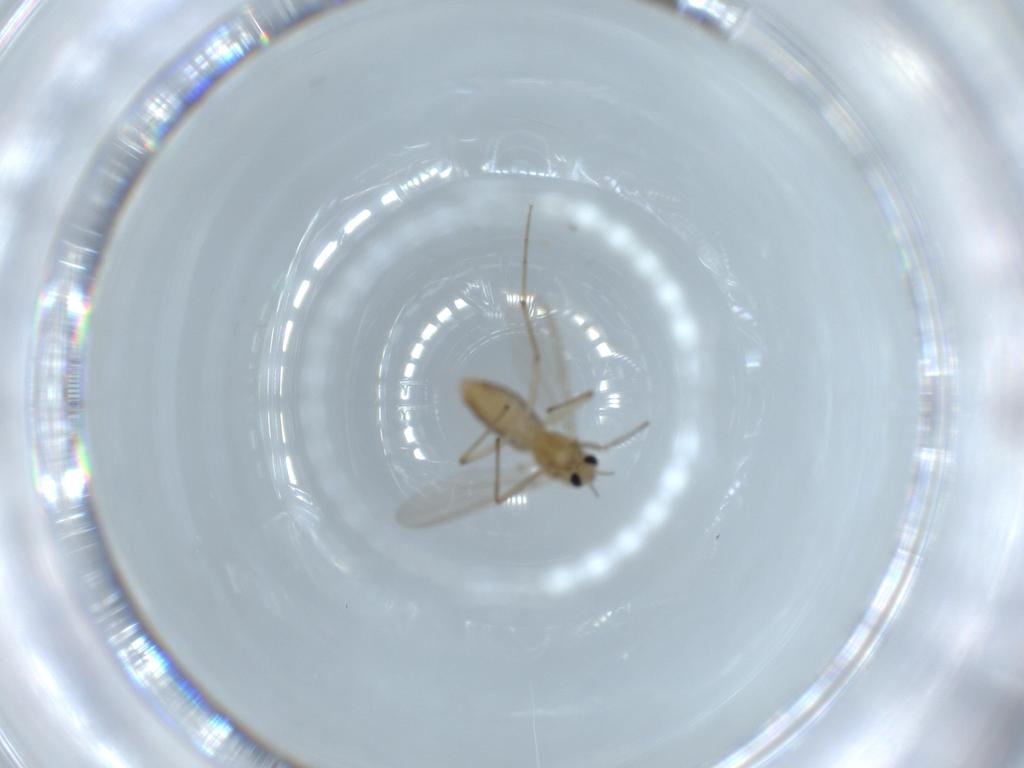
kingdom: Animalia
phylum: Arthropoda
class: Insecta
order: Diptera
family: Chironomidae
